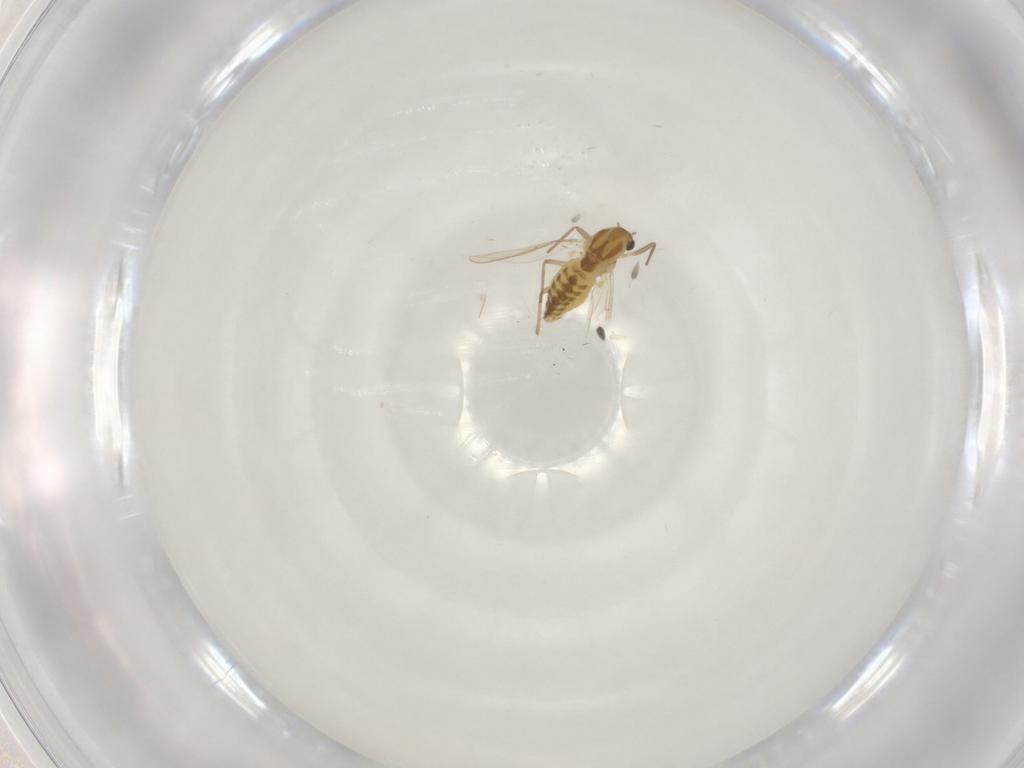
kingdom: Animalia
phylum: Arthropoda
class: Insecta
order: Diptera
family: Chironomidae
